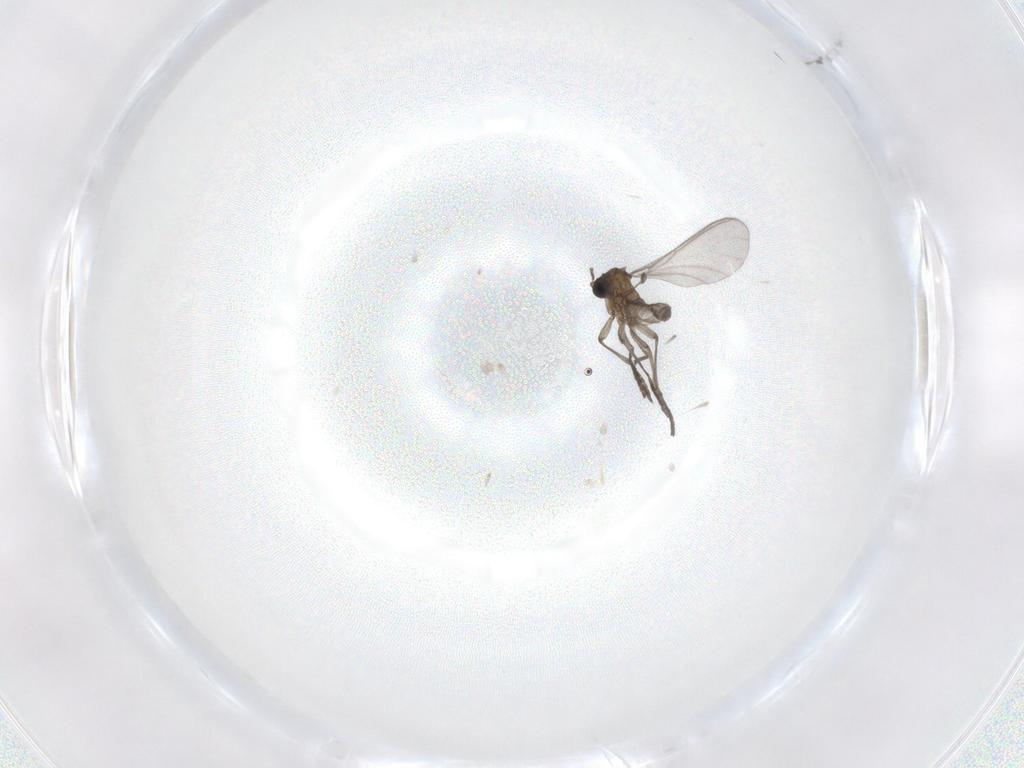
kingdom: Animalia
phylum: Arthropoda
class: Insecta
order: Diptera
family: Sciaridae
